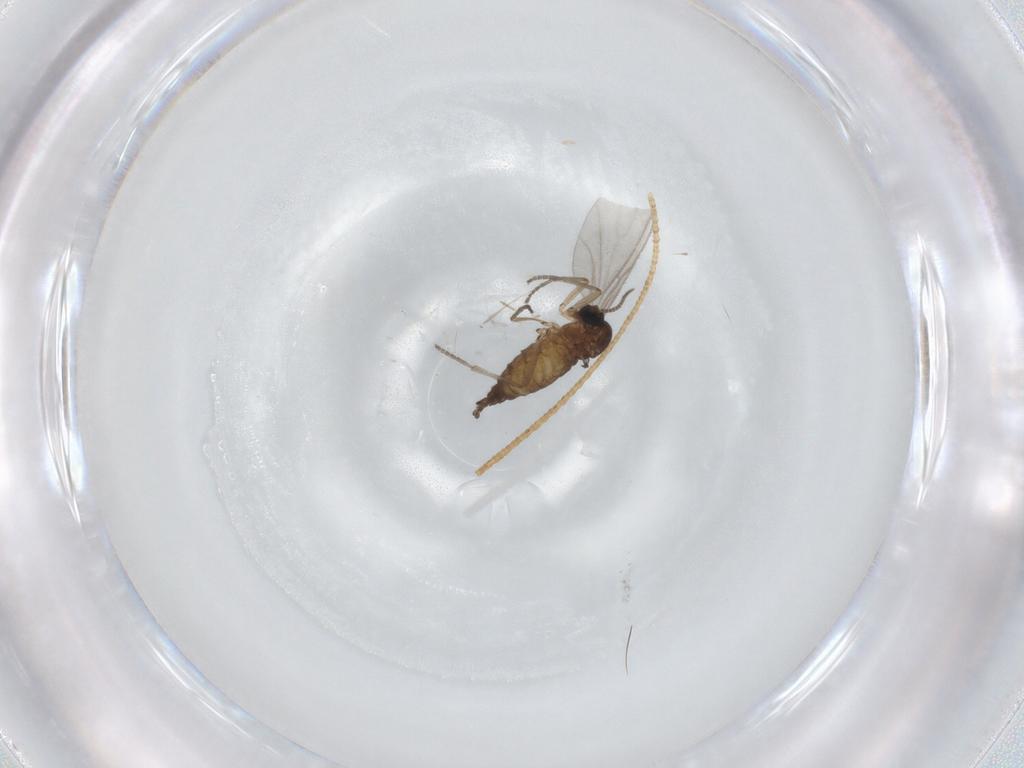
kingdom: Animalia
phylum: Arthropoda
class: Insecta
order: Diptera
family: Sciaridae
